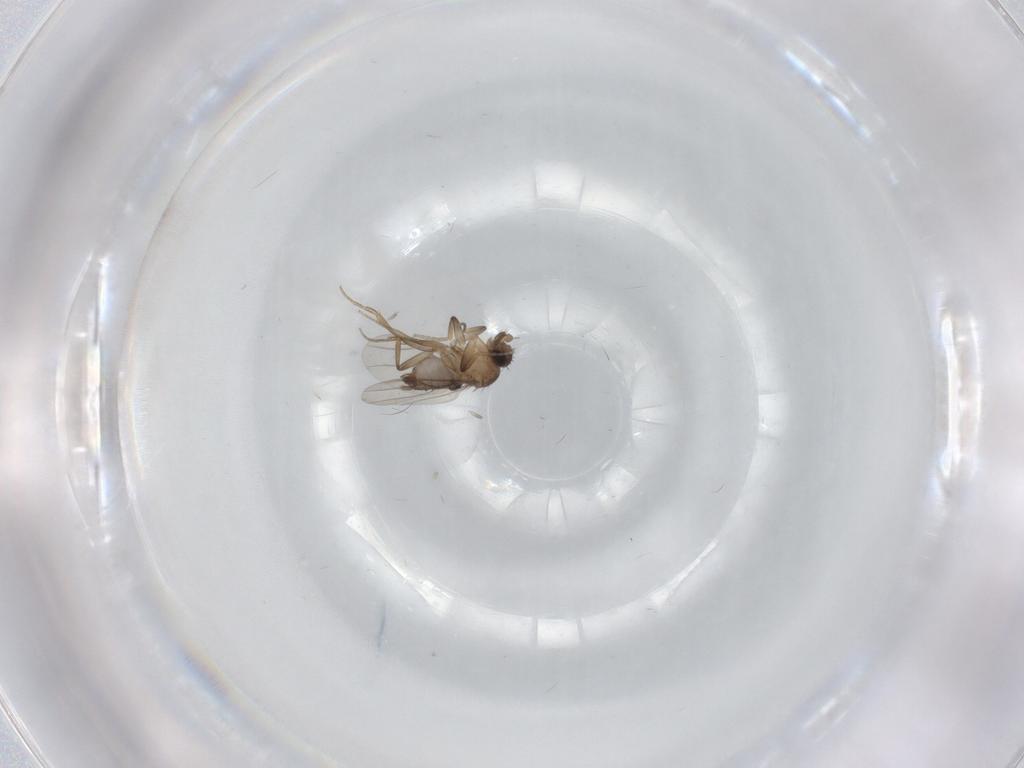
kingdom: Animalia
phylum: Arthropoda
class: Insecta
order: Diptera
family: Phoridae
